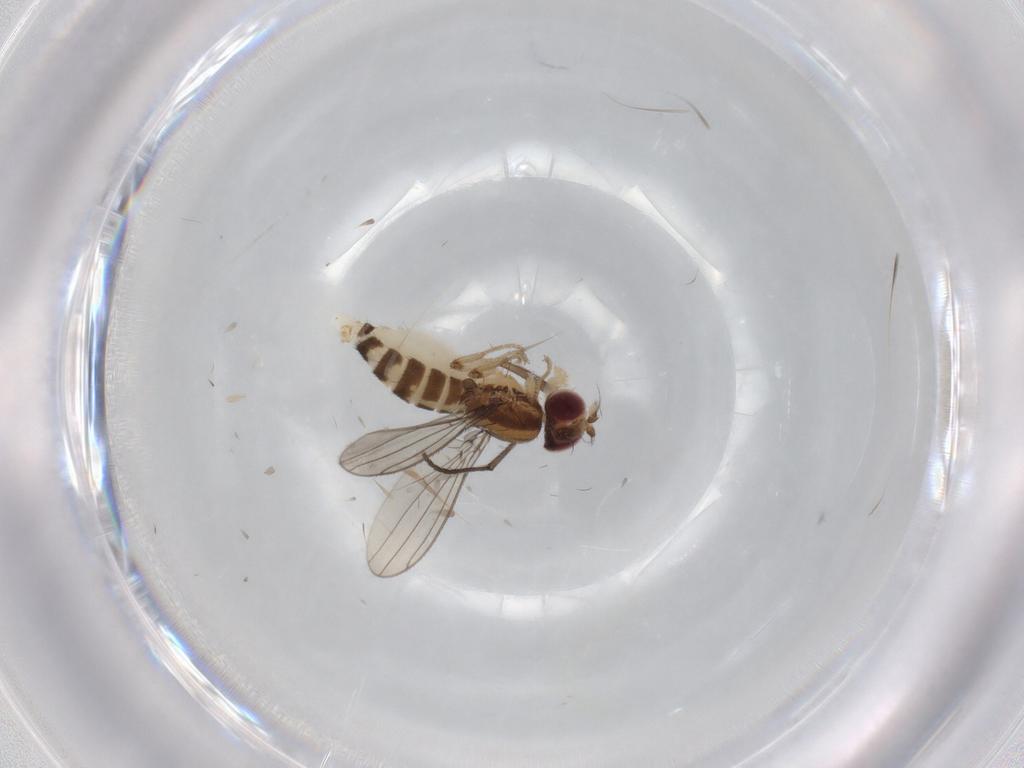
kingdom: Animalia
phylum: Arthropoda
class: Insecta
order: Diptera
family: Anthomyzidae
